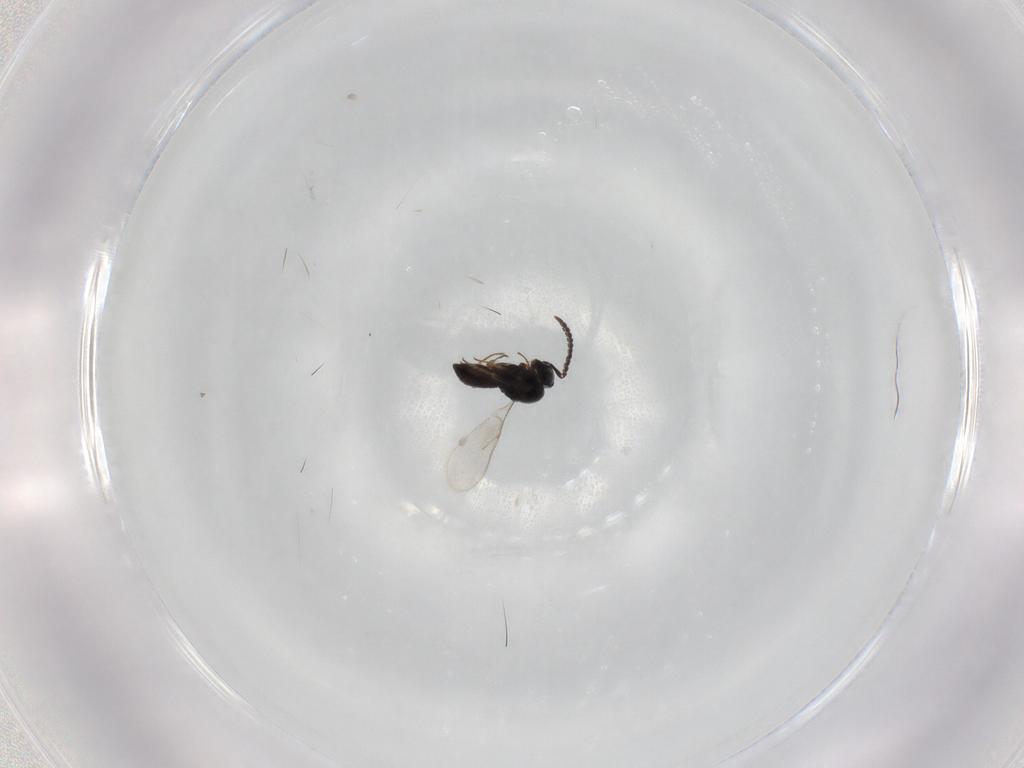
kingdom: Animalia
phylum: Arthropoda
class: Insecta
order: Hymenoptera
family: Scelionidae
